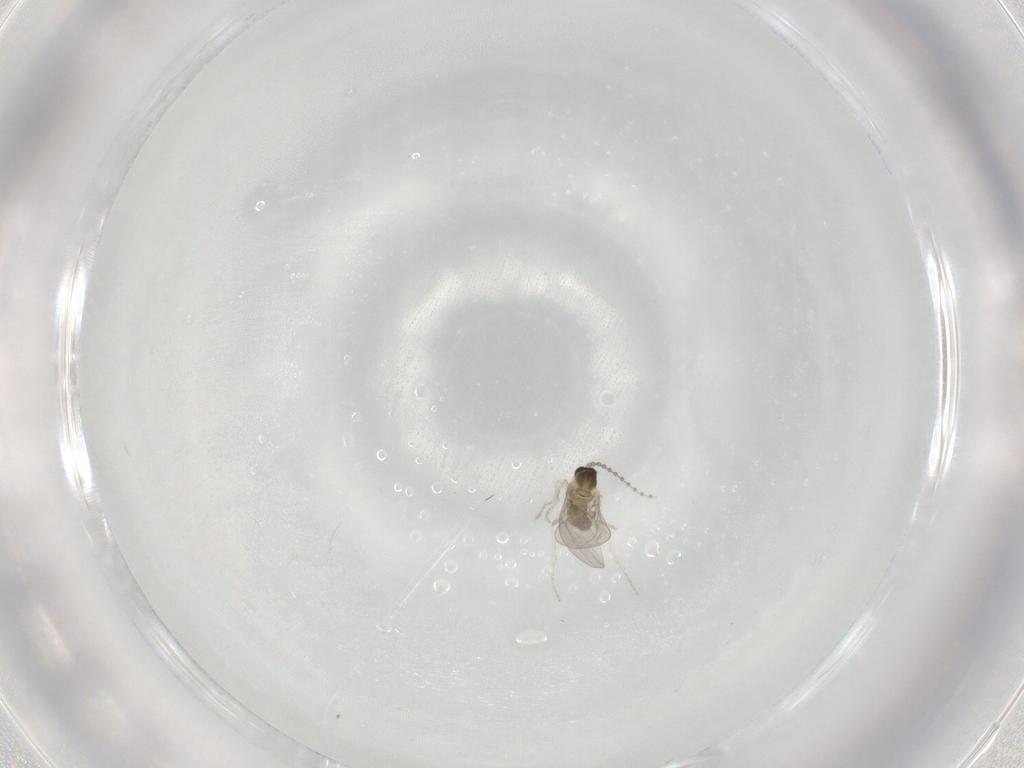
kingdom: Animalia
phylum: Arthropoda
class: Insecta
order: Diptera
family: Cecidomyiidae
